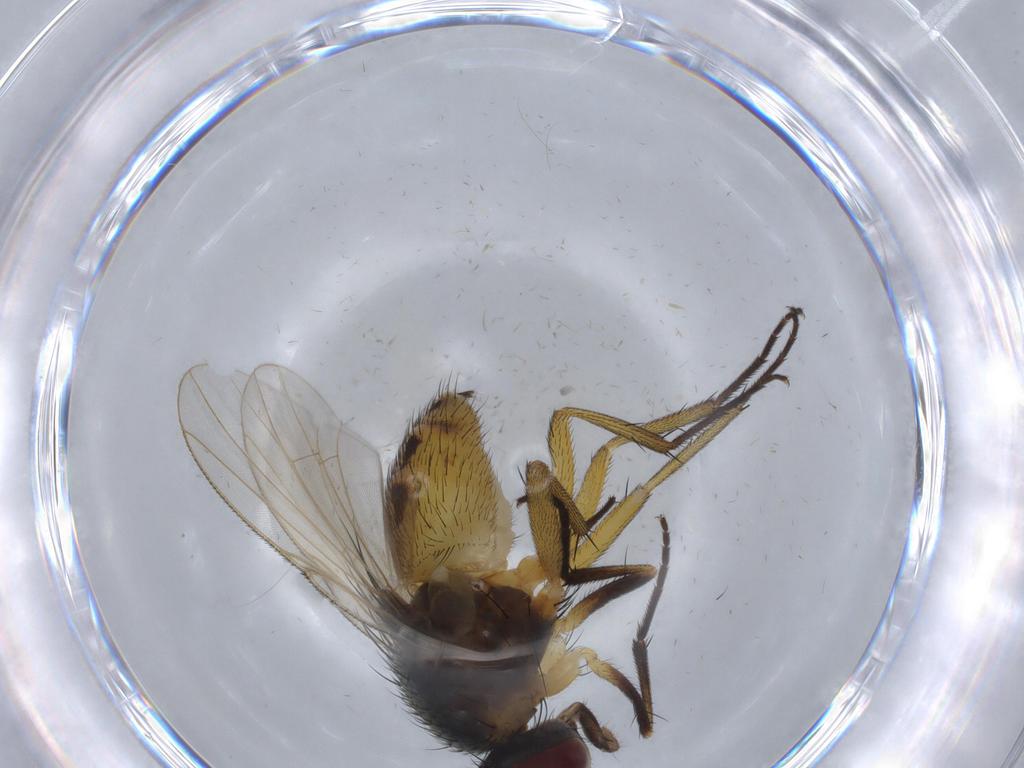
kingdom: Animalia
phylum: Arthropoda
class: Insecta
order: Diptera
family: Muscidae
